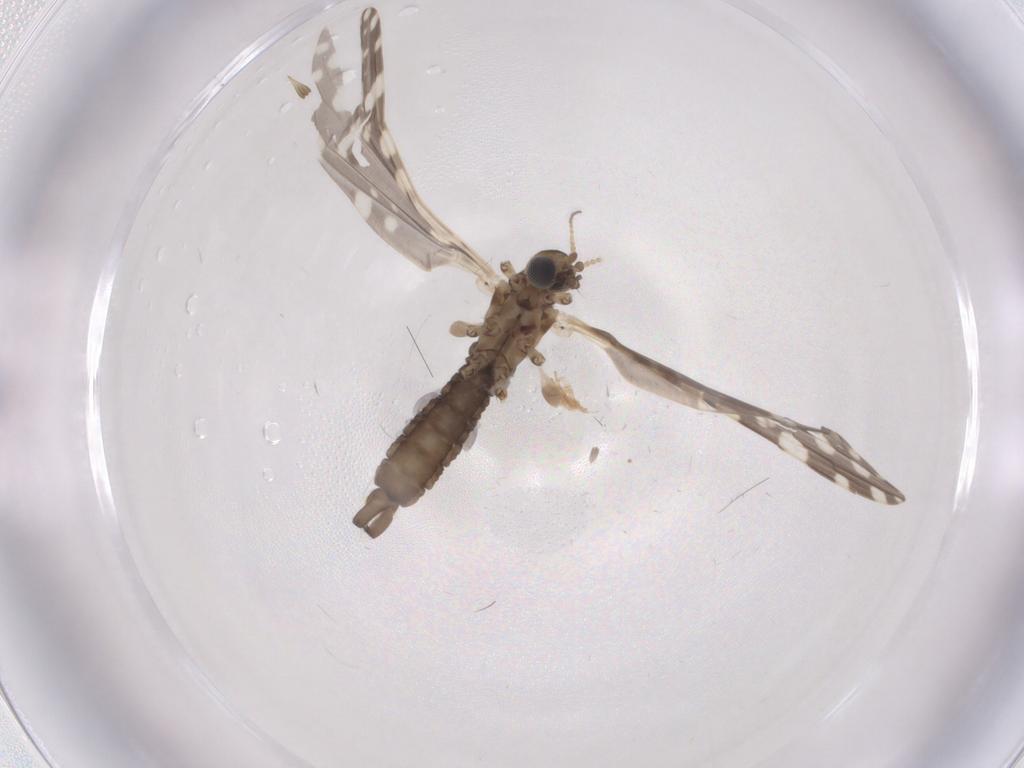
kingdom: Animalia
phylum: Arthropoda
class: Insecta
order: Diptera
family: Limoniidae
